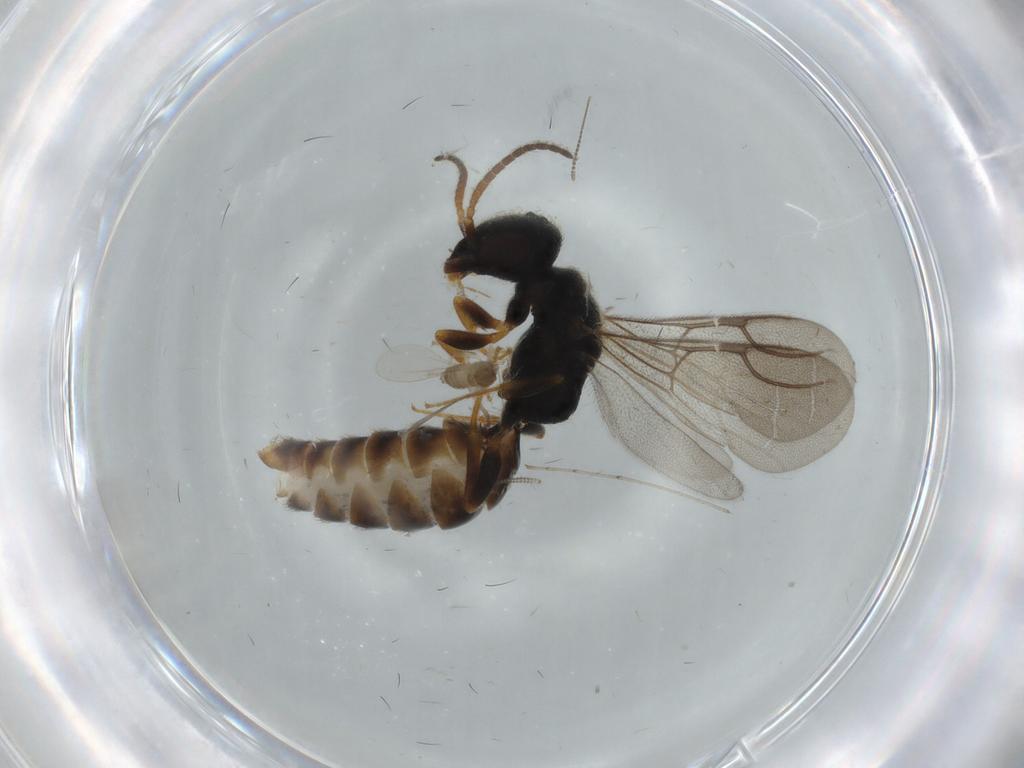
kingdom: Animalia
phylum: Arthropoda
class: Insecta
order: Hymenoptera
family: Bethylidae
